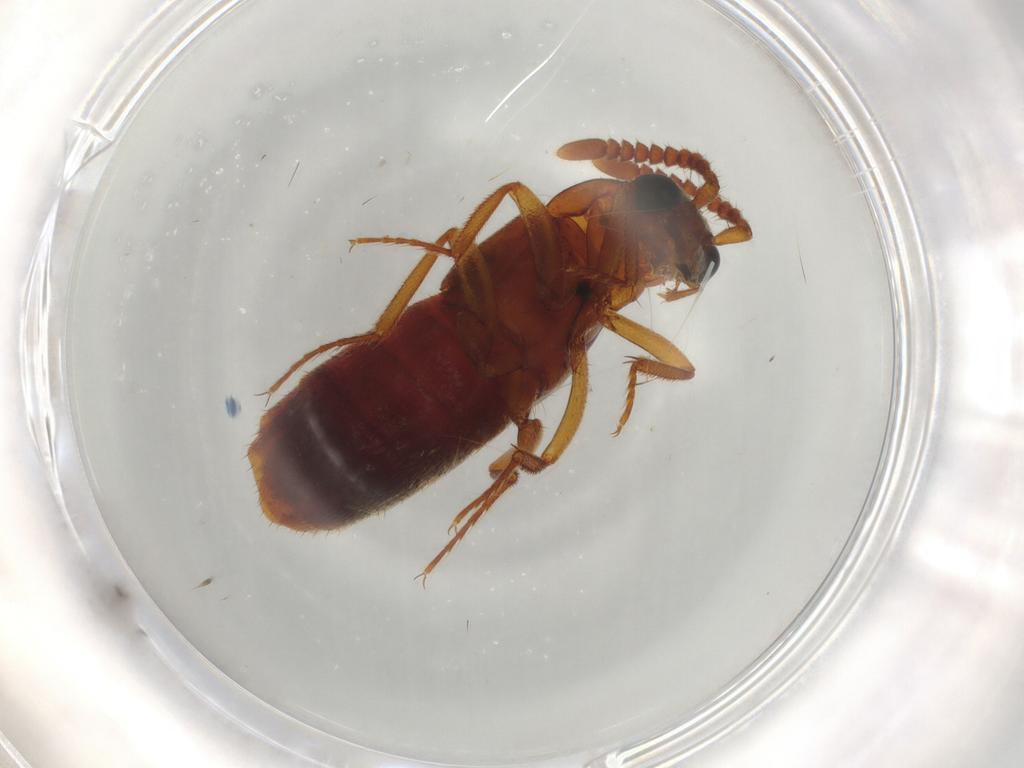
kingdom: Animalia
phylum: Arthropoda
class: Insecta
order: Coleoptera
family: Staphylinidae
